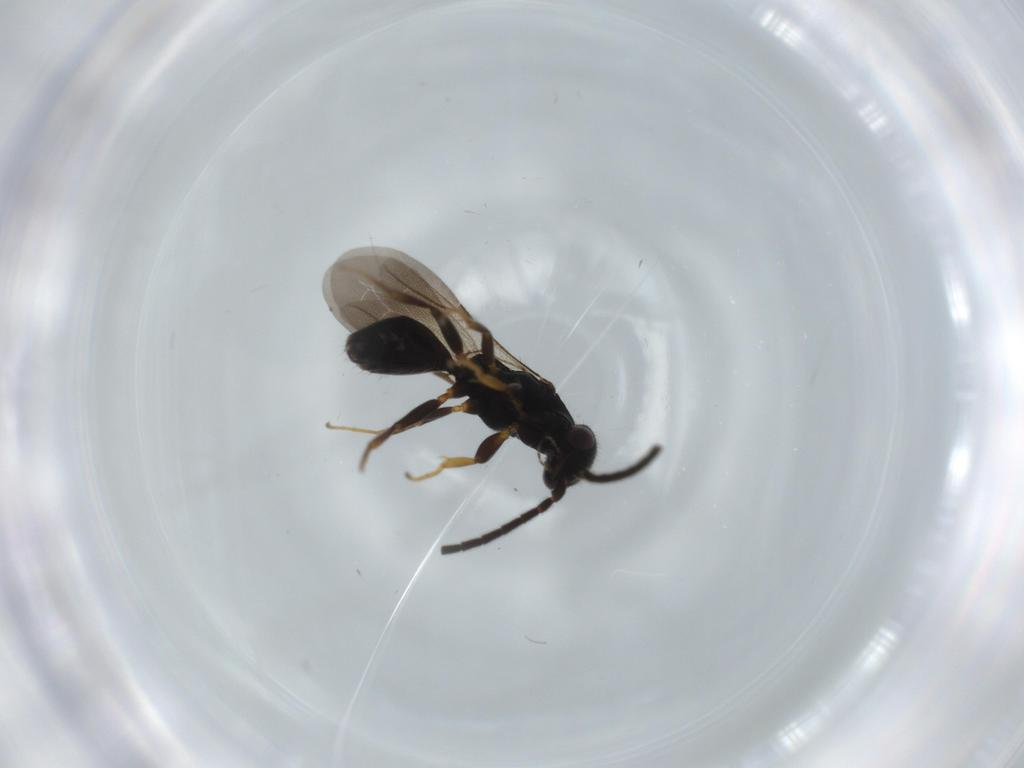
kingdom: Animalia
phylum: Arthropoda
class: Insecta
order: Hymenoptera
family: Bethylidae
